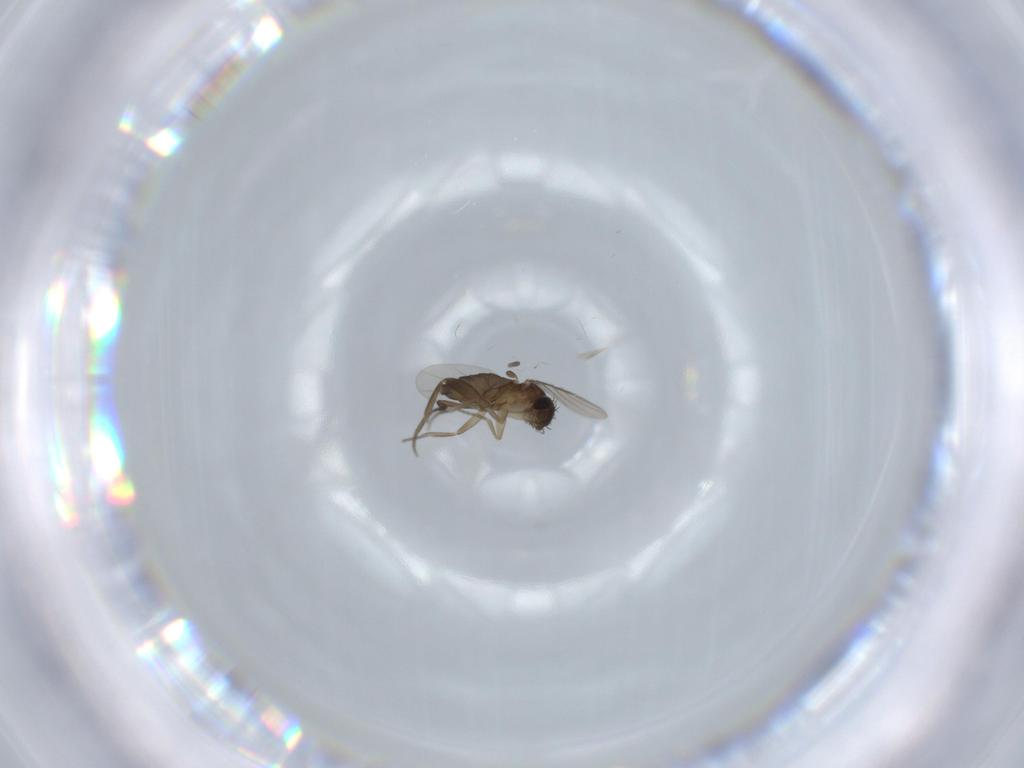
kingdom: Animalia
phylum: Arthropoda
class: Insecta
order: Diptera
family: Phoridae
